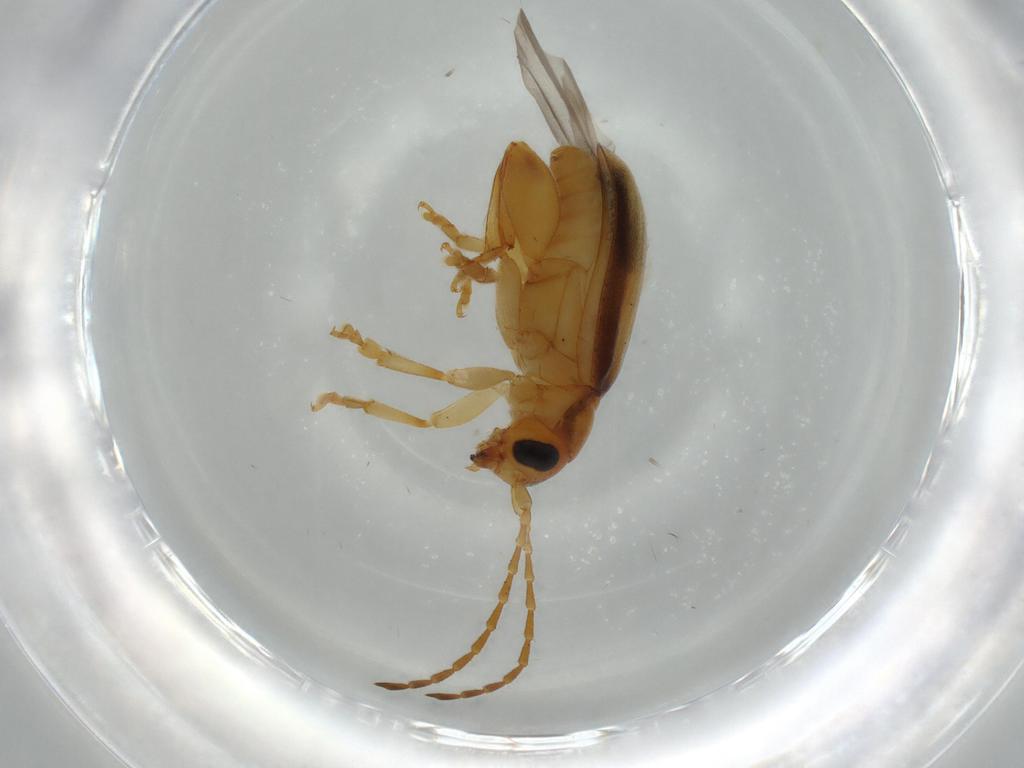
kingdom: Animalia
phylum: Arthropoda
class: Insecta
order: Coleoptera
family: Chrysomelidae
